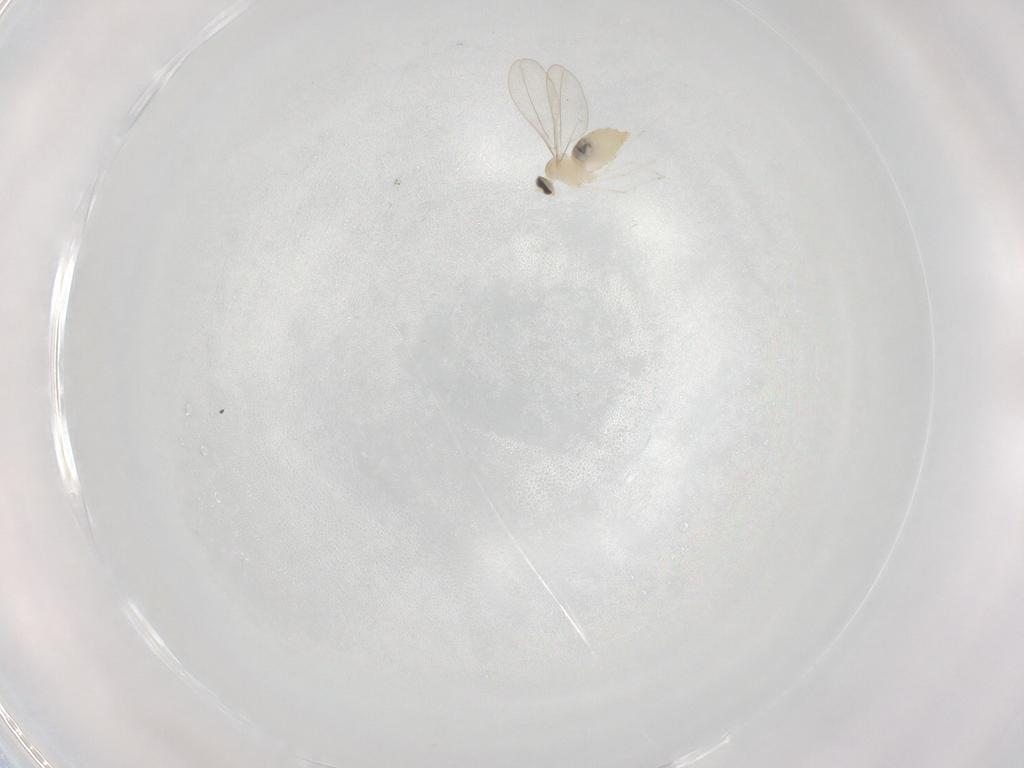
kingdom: Animalia
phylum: Arthropoda
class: Insecta
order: Diptera
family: Cecidomyiidae
